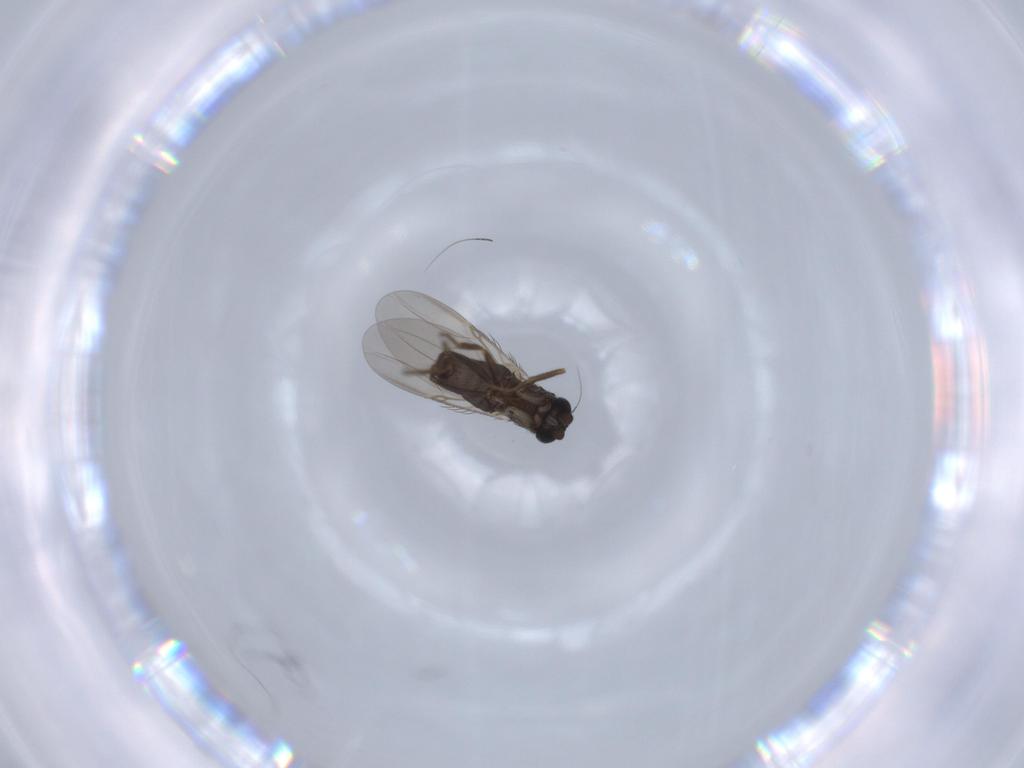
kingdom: Animalia
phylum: Arthropoda
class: Insecta
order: Diptera
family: Phoridae
